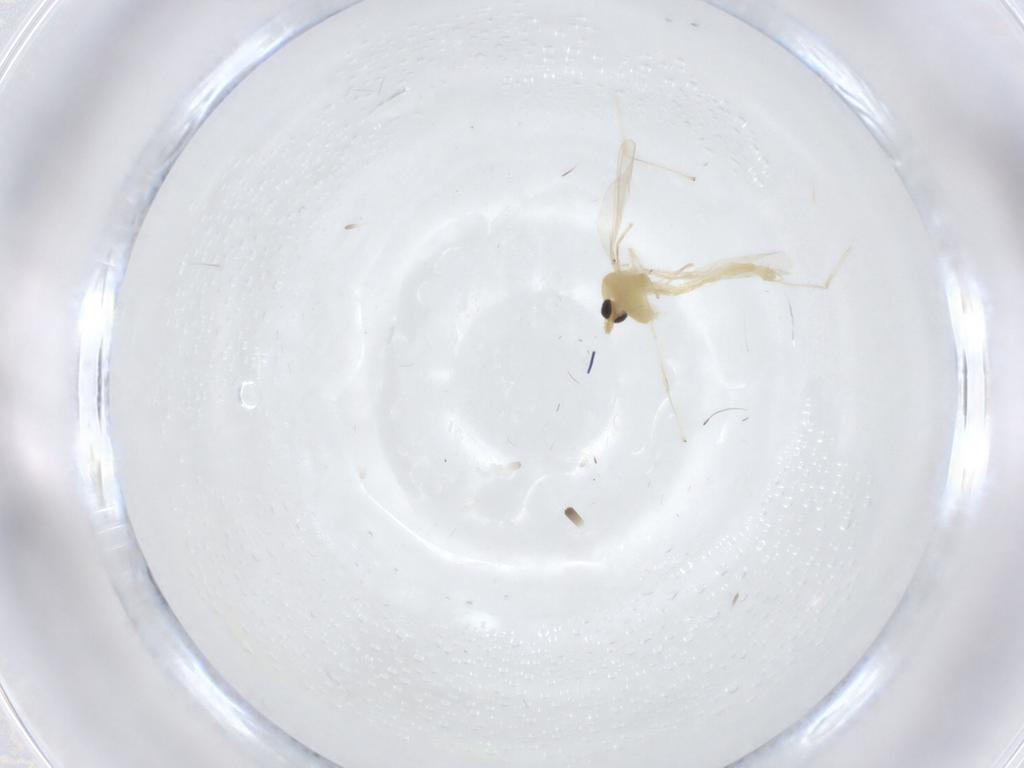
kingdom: Animalia
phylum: Arthropoda
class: Insecta
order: Diptera
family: Chironomidae
